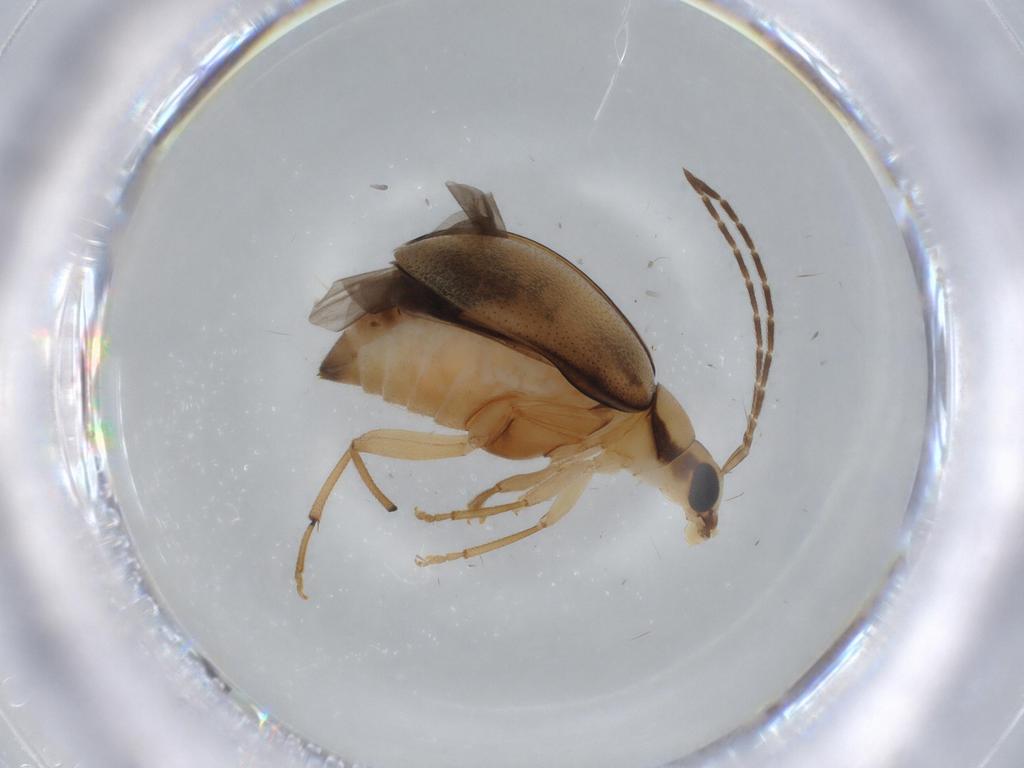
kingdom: Animalia
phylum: Arthropoda
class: Insecta
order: Coleoptera
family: Chrysomelidae
